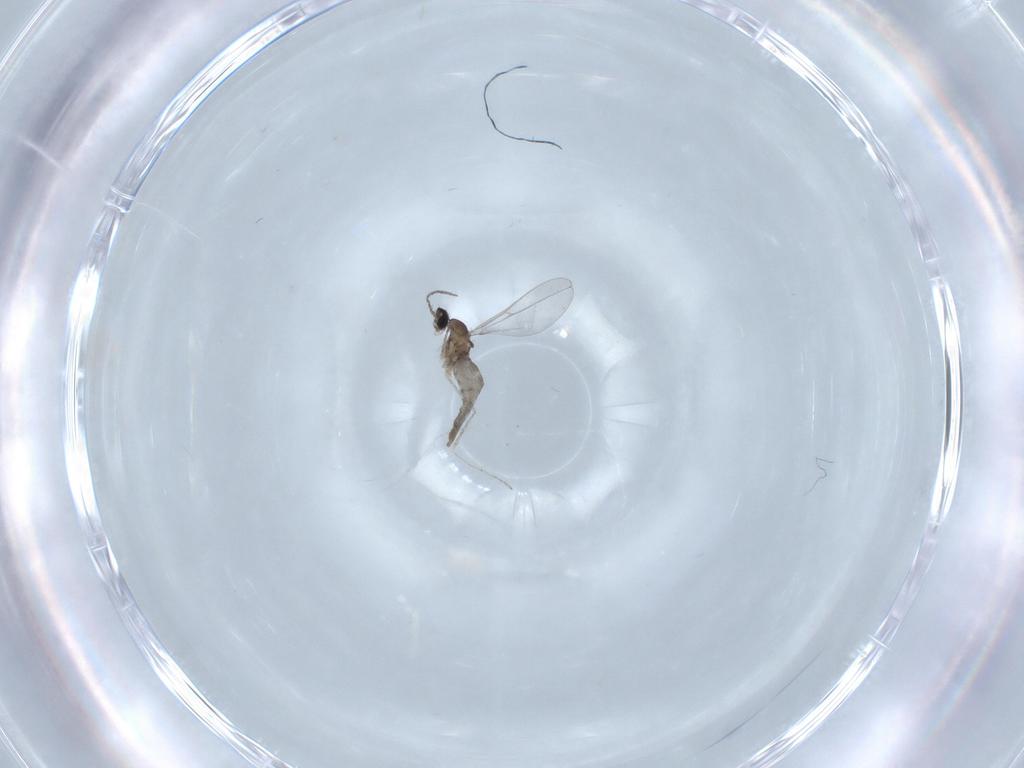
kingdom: Animalia
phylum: Arthropoda
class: Insecta
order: Diptera
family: Cecidomyiidae
